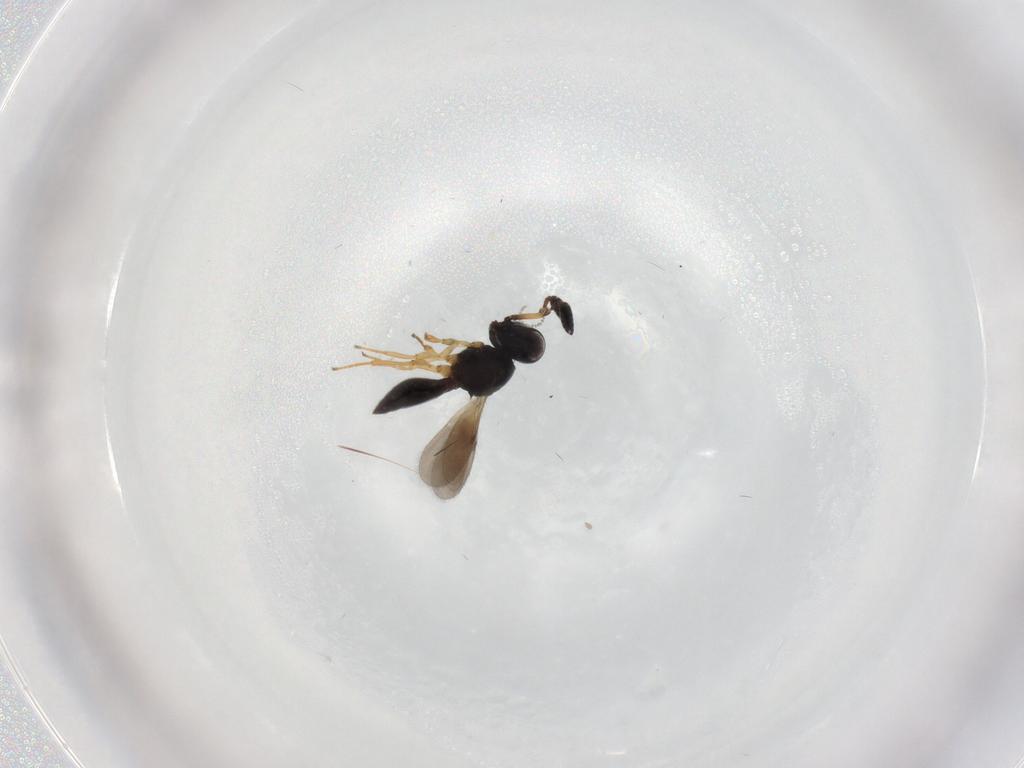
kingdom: Animalia
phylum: Arthropoda
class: Insecta
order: Hymenoptera
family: Scelionidae
